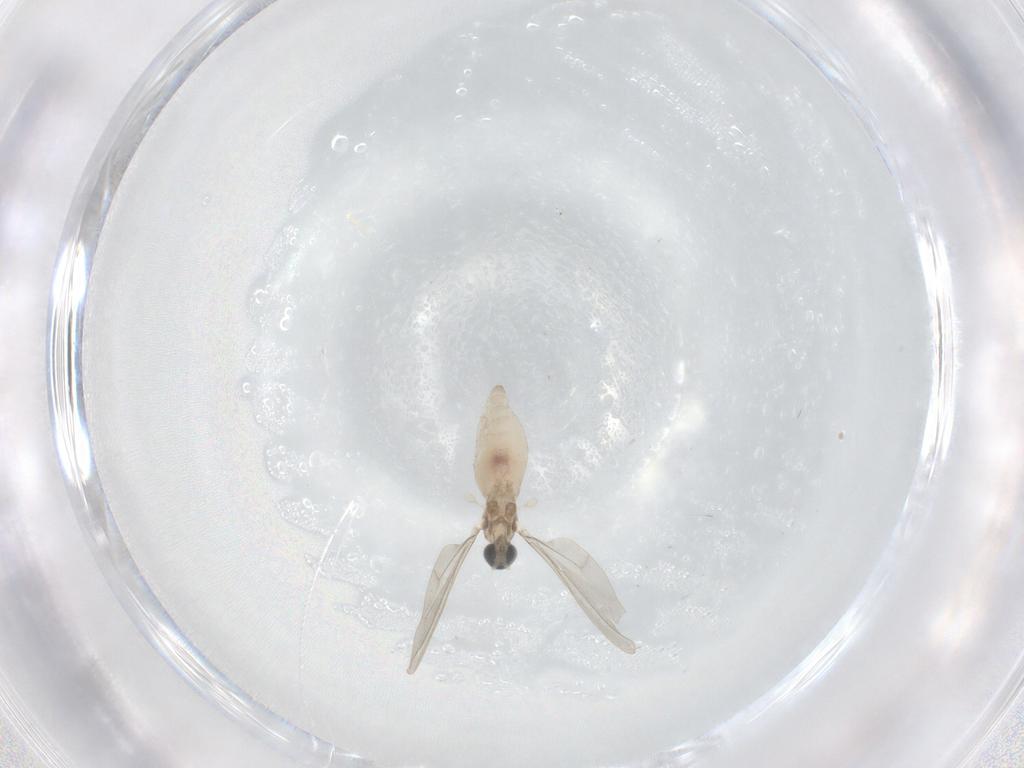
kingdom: Animalia
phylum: Arthropoda
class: Insecta
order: Diptera
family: Cecidomyiidae
